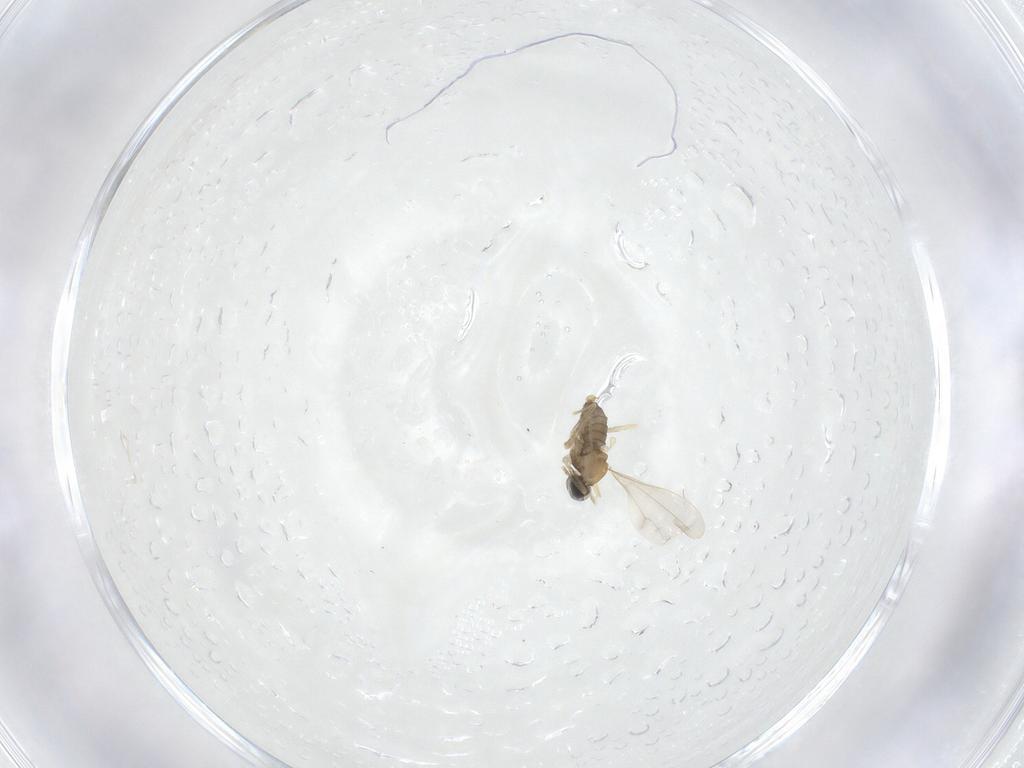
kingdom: Animalia
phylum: Arthropoda
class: Insecta
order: Diptera
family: Cecidomyiidae
